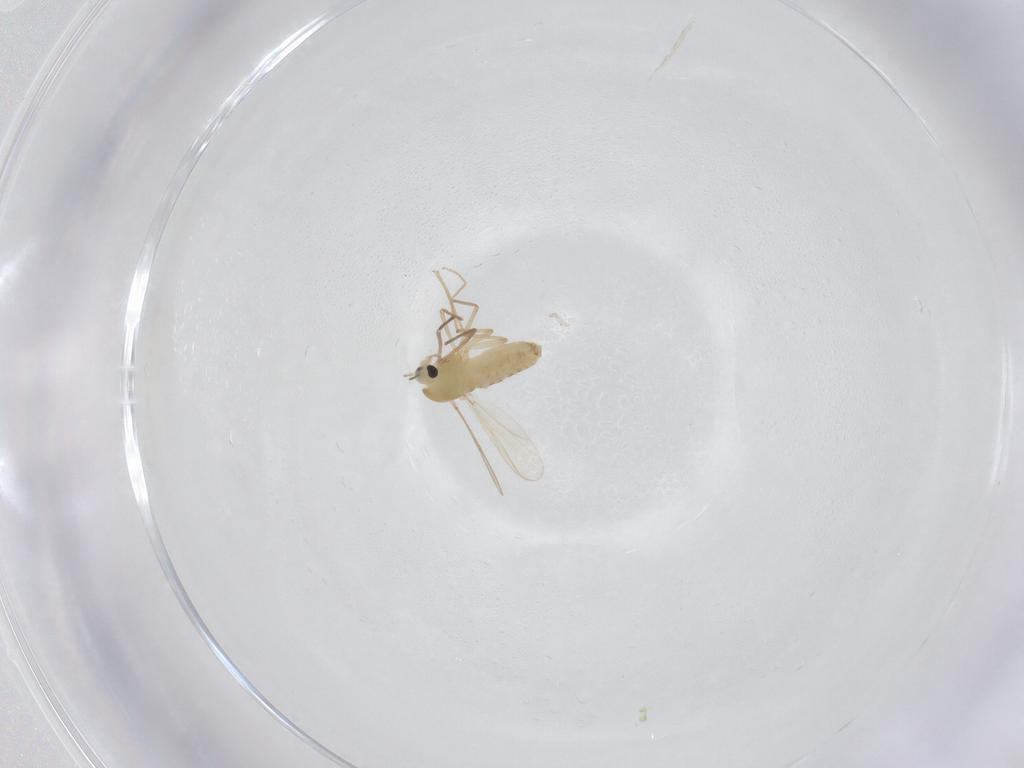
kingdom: Animalia
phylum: Arthropoda
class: Insecta
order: Diptera
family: Chironomidae
